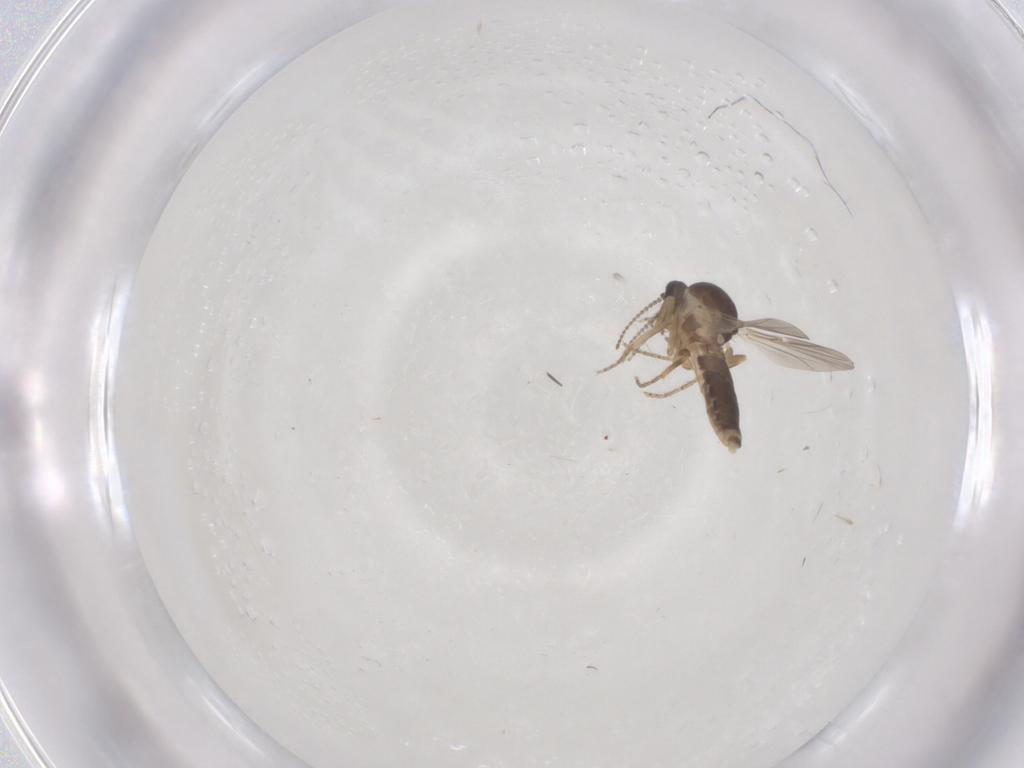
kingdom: Animalia
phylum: Arthropoda
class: Insecta
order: Diptera
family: Ceratopogonidae
